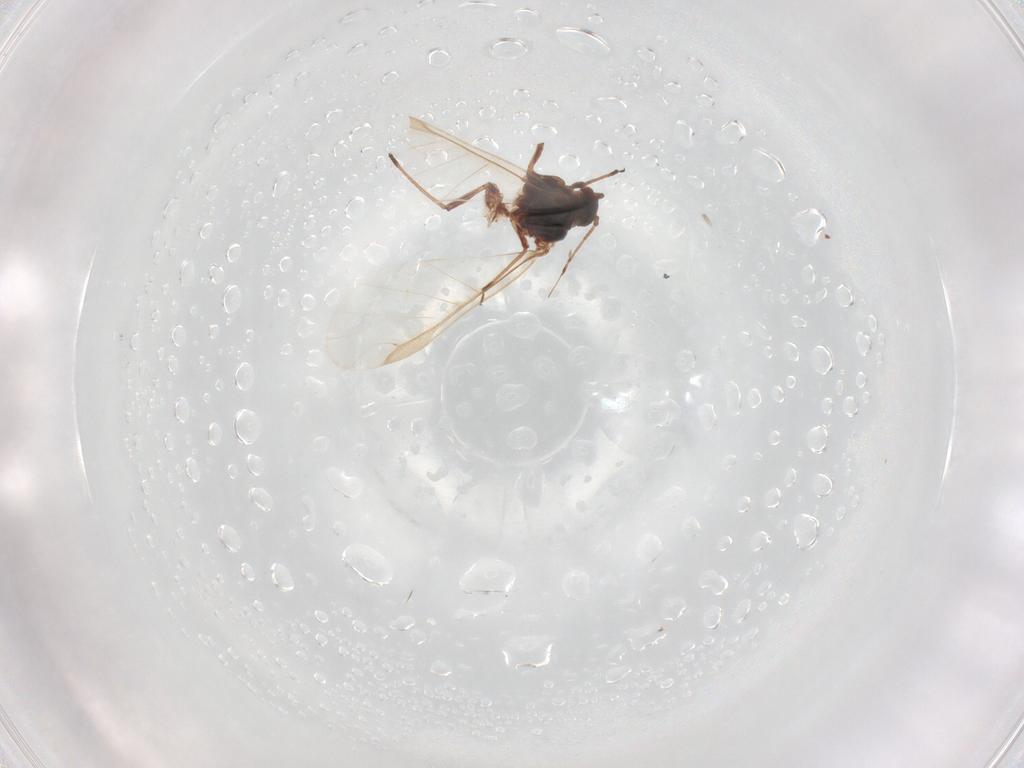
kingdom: Animalia
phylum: Arthropoda
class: Insecta
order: Hemiptera
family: Aphididae
